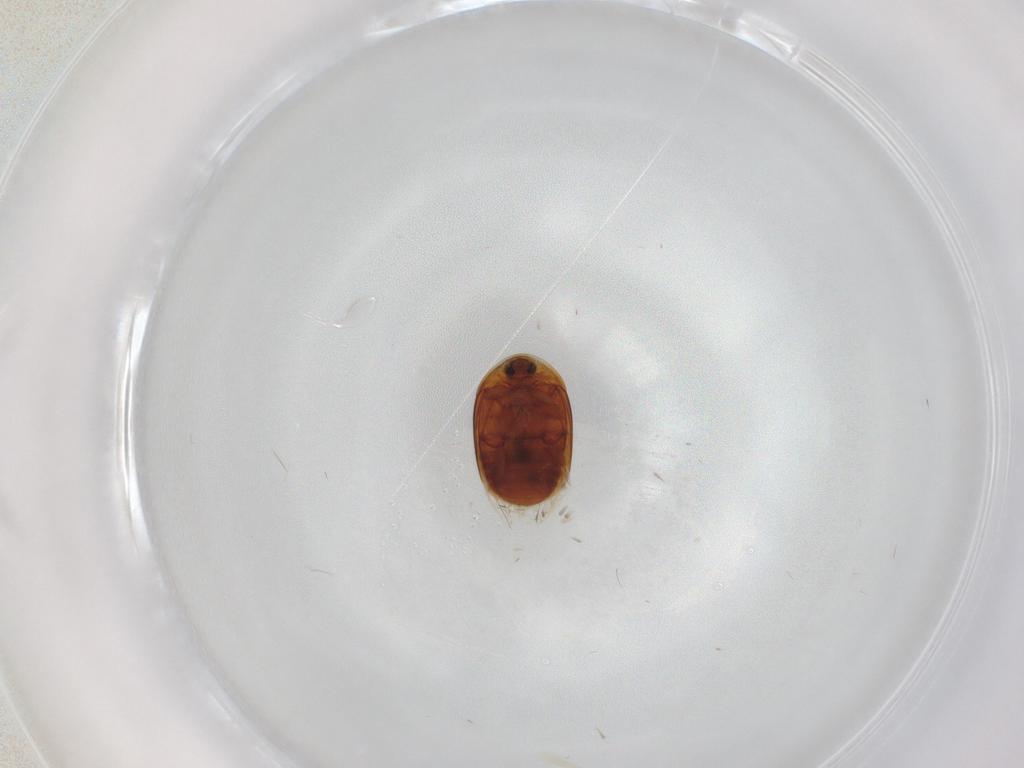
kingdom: Animalia
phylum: Arthropoda
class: Insecta
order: Coleoptera
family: Corylophidae
